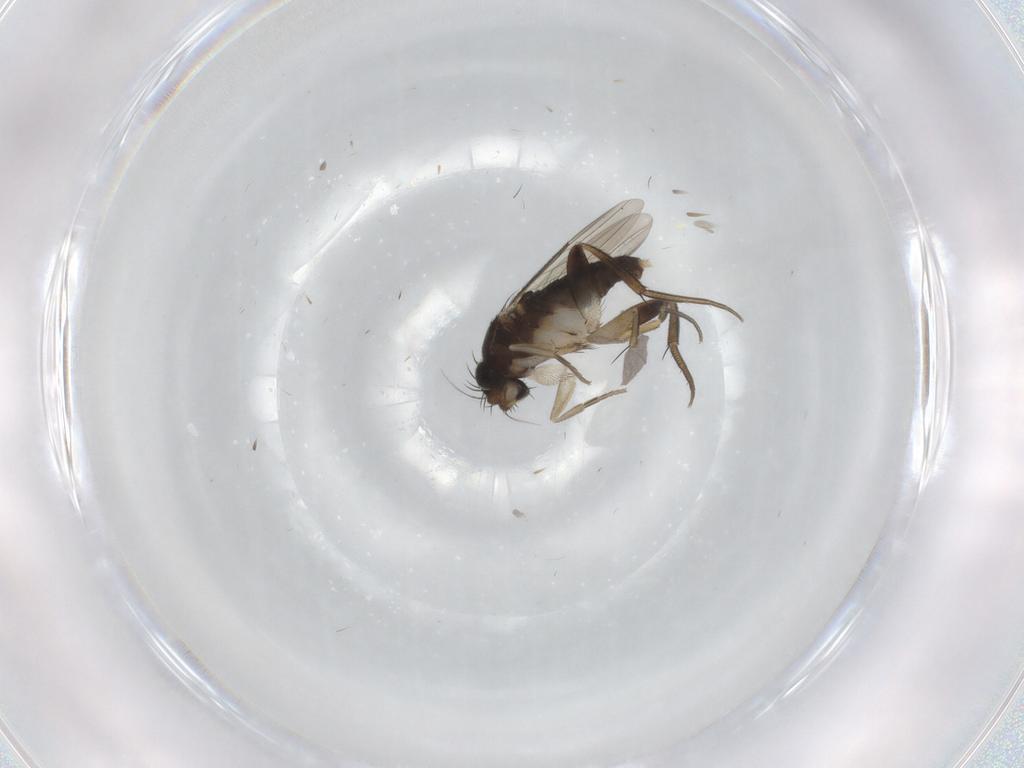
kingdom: Animalia
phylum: Arthropoda
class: Insecta
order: Diptera
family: Phoridae
